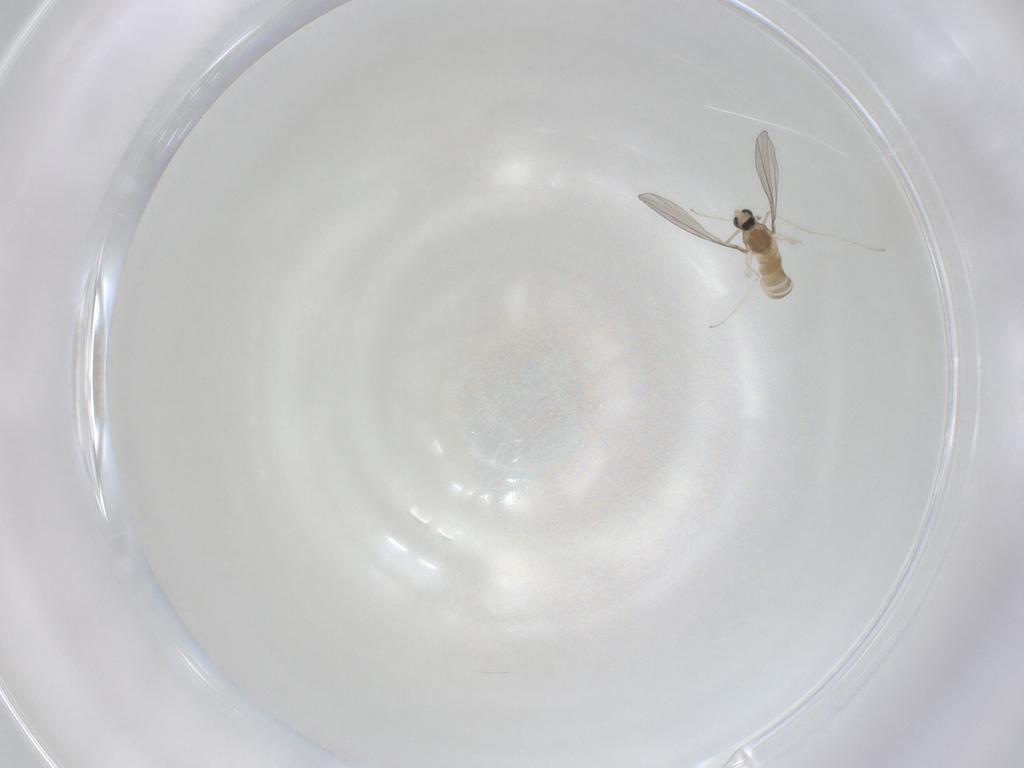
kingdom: Animalia
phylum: Arthropoda
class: Insecta
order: Diptera
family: Cecidomyiidae
